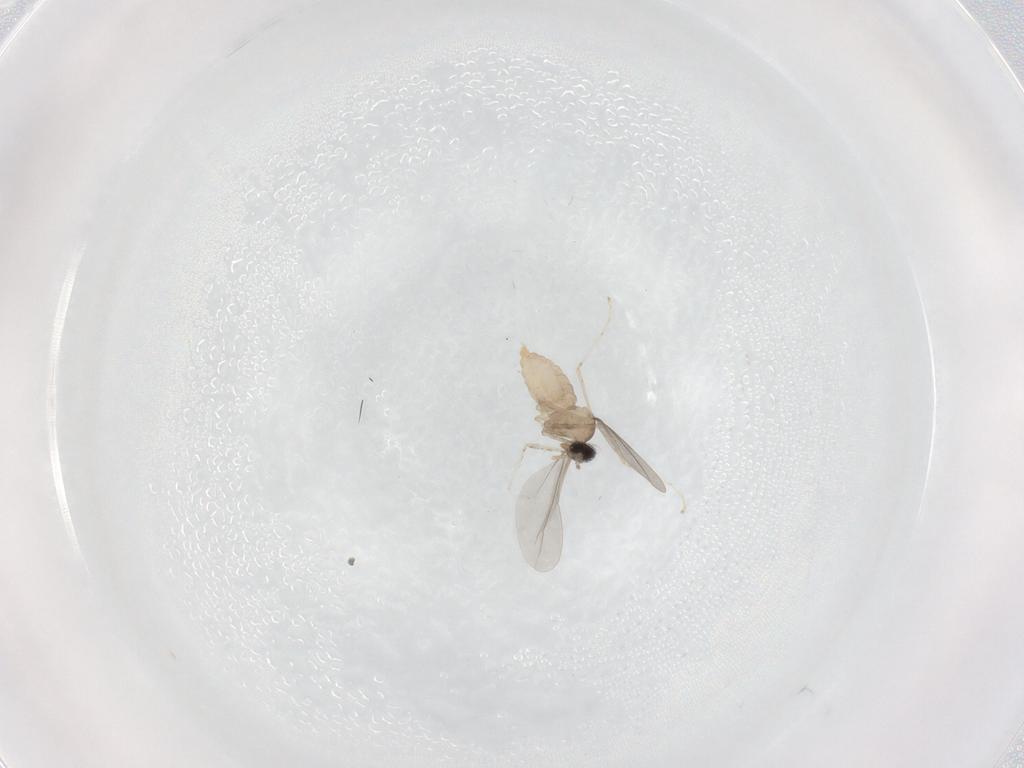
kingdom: Animalia
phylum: Arthropoda
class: Insecta
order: Diptera
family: Cecidomyiidae
